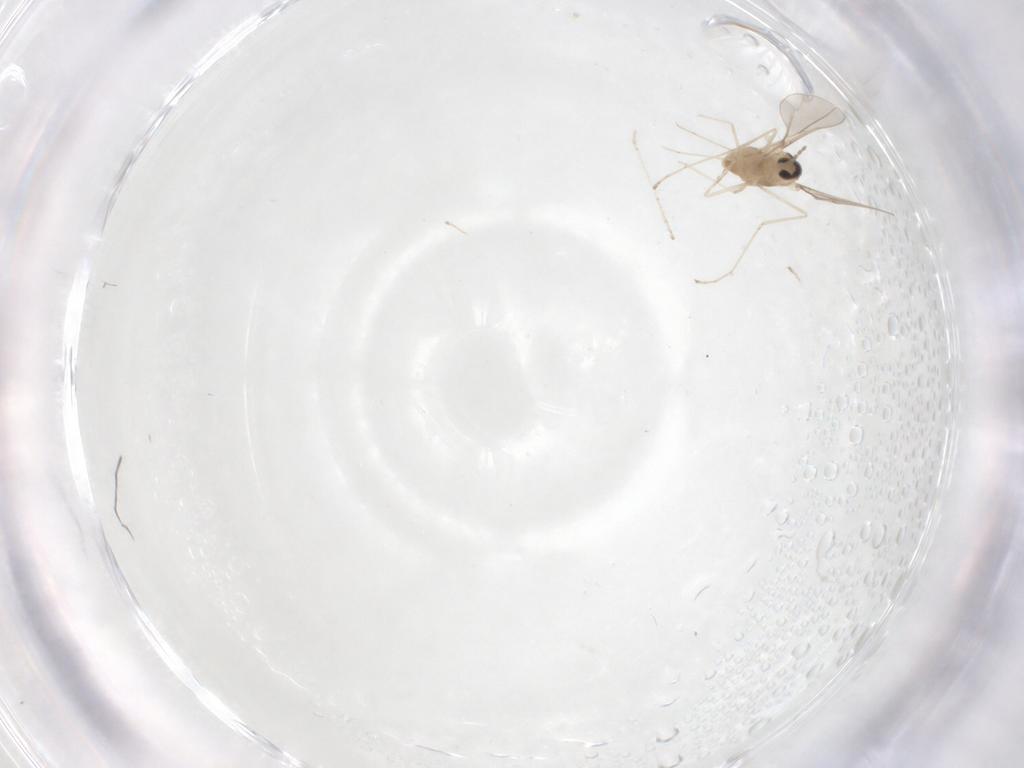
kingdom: Animalia
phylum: Arthropoda
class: Insecta
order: Diptera
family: Cecidomyiidae
